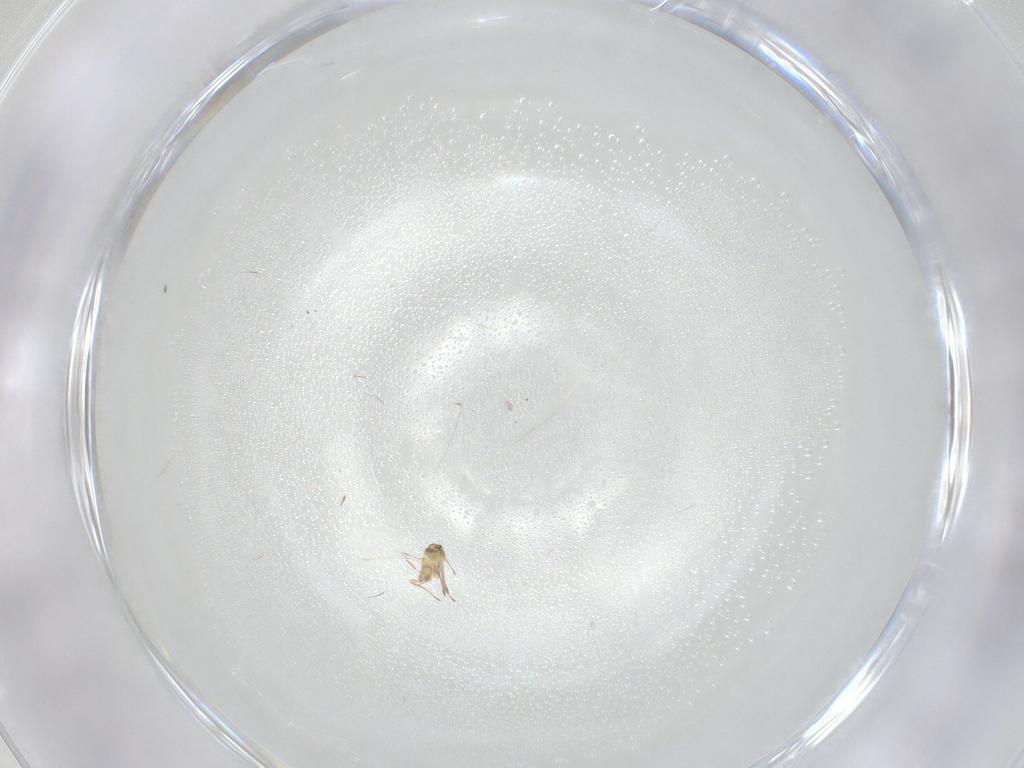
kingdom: Animalia
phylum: Arthropoda
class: Insecta
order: Hymenoptera
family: Mymaridae
